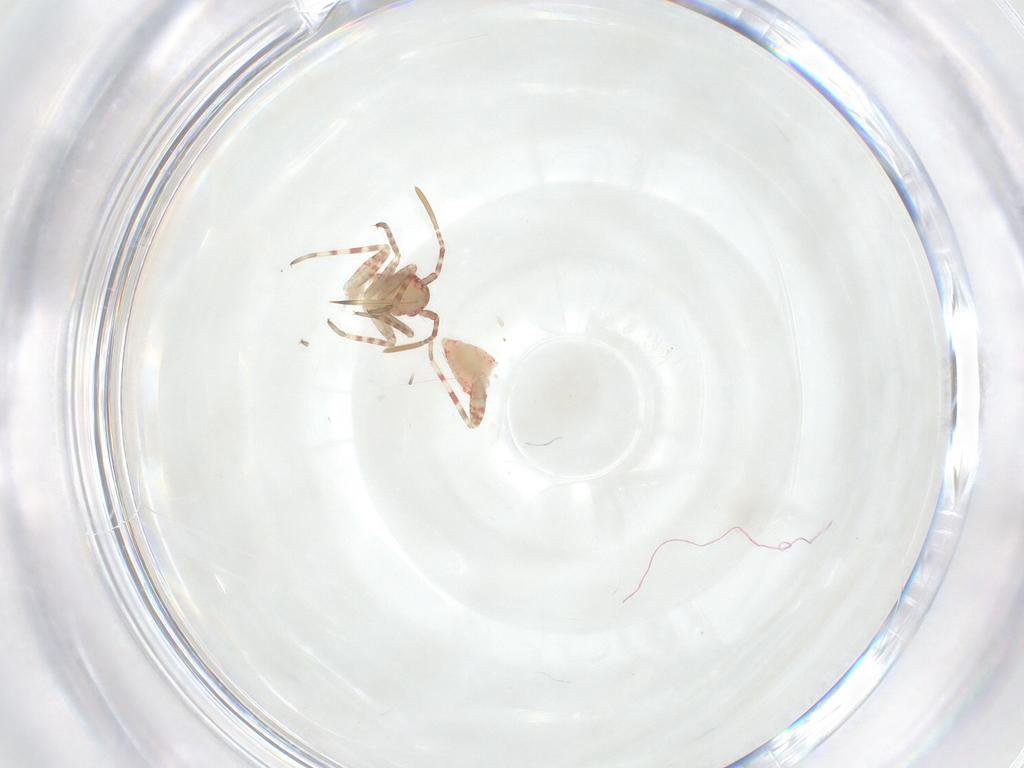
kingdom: Animalia
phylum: Arthropoda
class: Insecta
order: Hemiptera
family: Miridae
